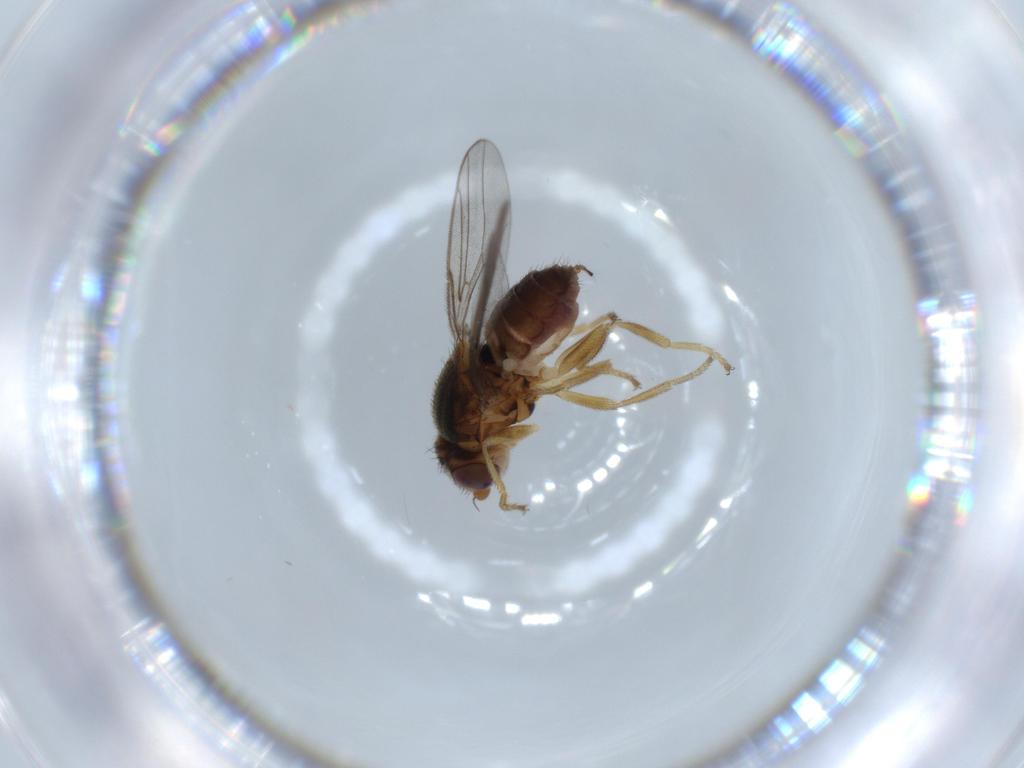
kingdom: Animalia
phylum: Arthropoda
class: Insecta
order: Diptera
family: Chloropidae
